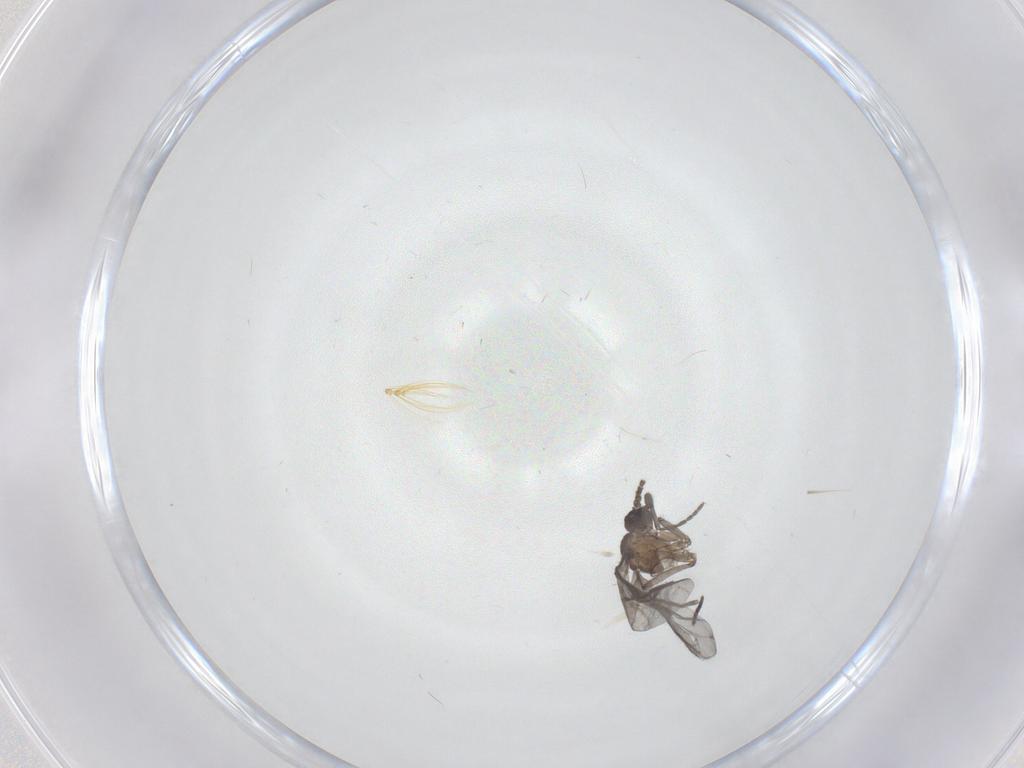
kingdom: Animalia
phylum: Arthropoda
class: Insecta
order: Diptera
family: Sciaridae
